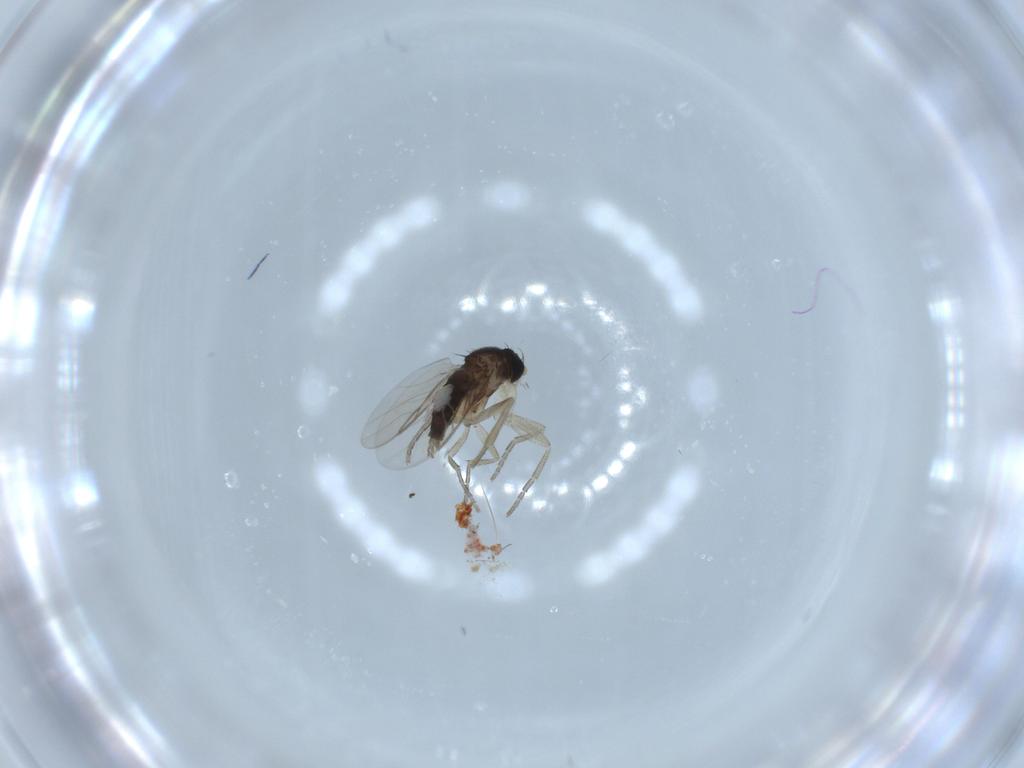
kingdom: Animalia
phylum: Arthropoda
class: Insecta
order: Diptera
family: Phoridae
